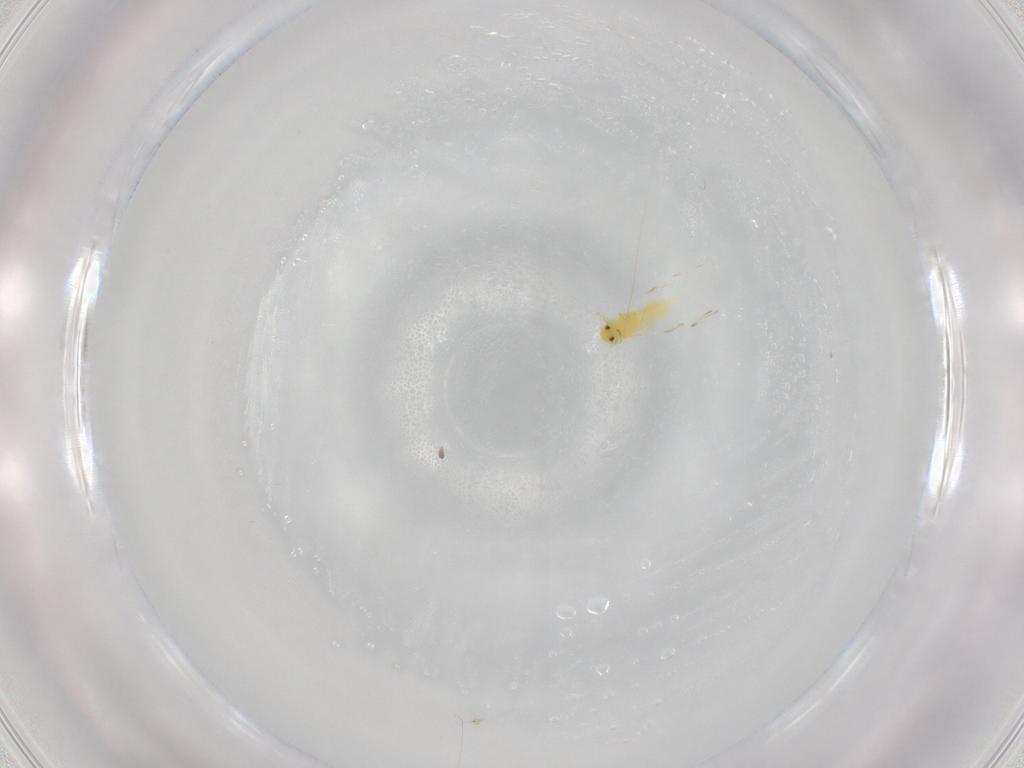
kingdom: Animalia
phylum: Arthropoda
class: Insecta
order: Hemiptera
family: Aleyrodidae
